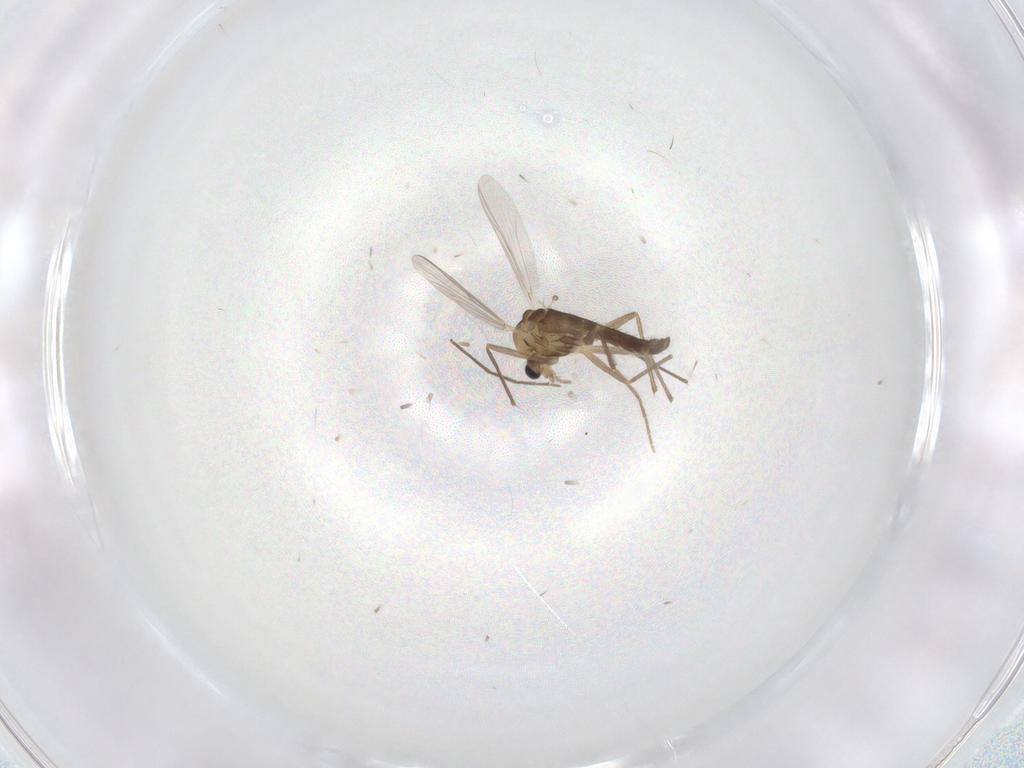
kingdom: Animalia
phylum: Arthropoda
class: Insecta
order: Diptera
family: Chironomidae
